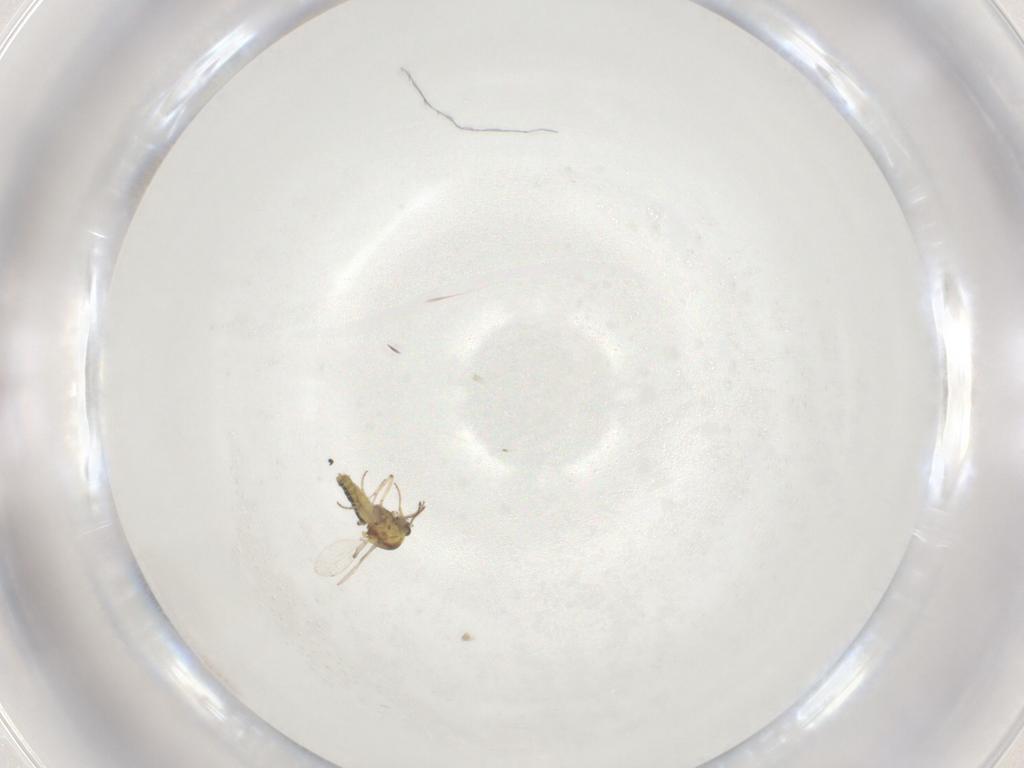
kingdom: Animalia
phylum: Arthropoda
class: Insecta
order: Diptera
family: Ceratopogonidae
